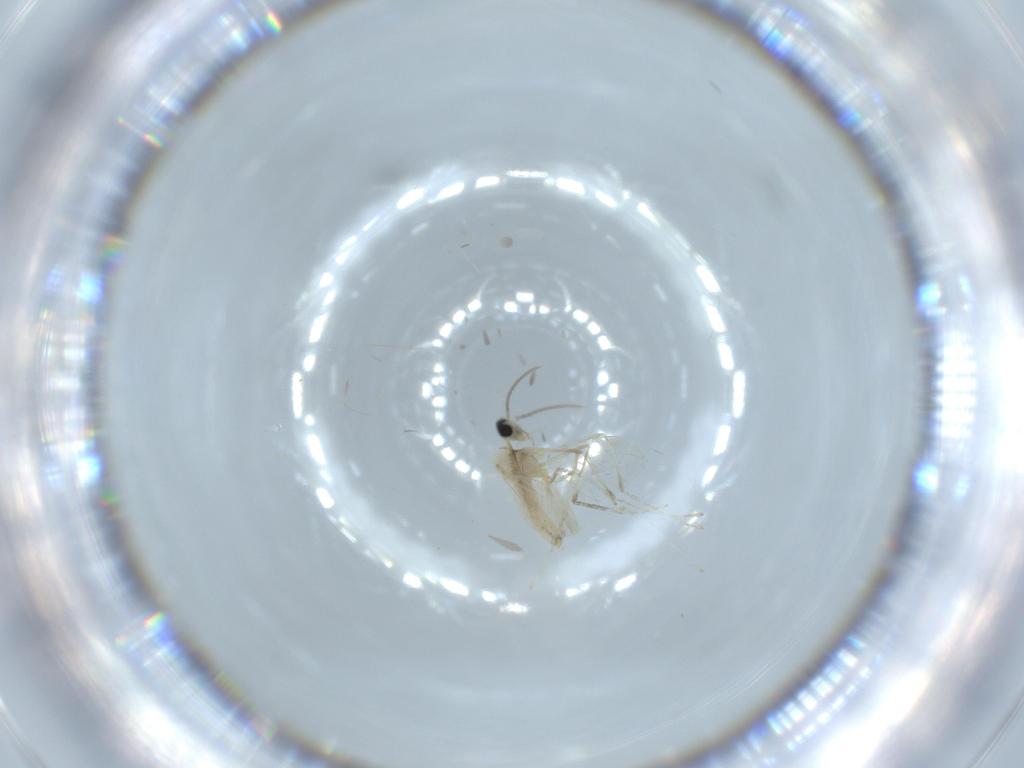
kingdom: Animalia
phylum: Arthropoda
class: Insecta
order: Diptera
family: Cecidomyiidae
